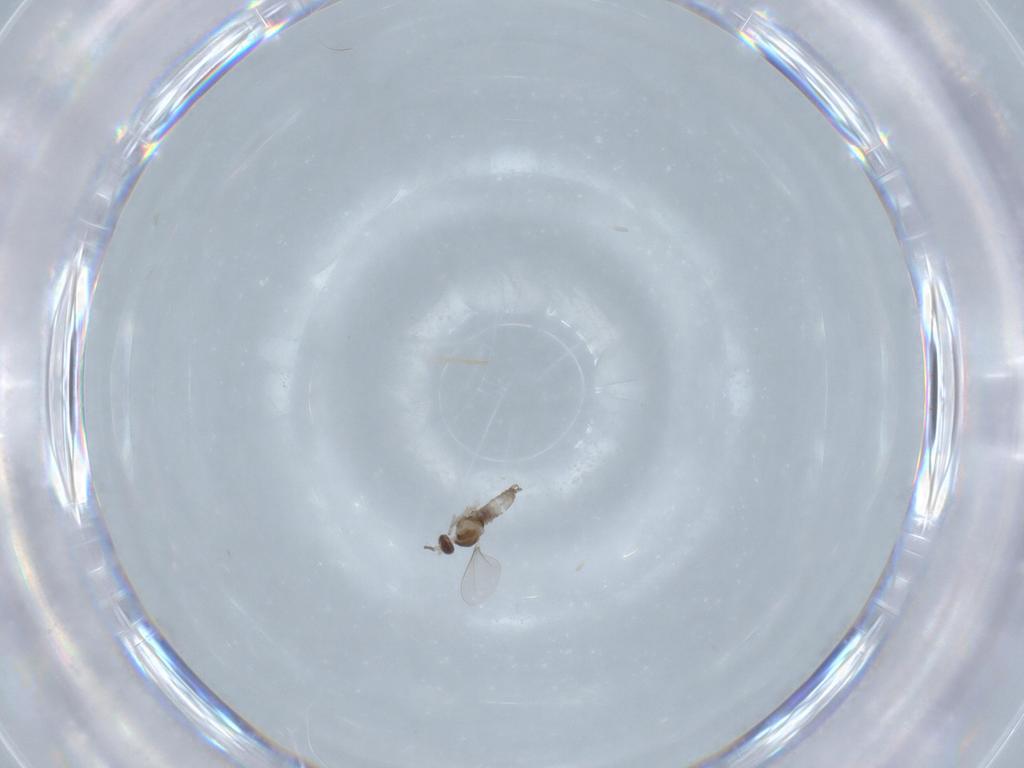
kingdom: Animalia
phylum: Arthropoda
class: Insecta
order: Diptera
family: Cecidomyiidae
